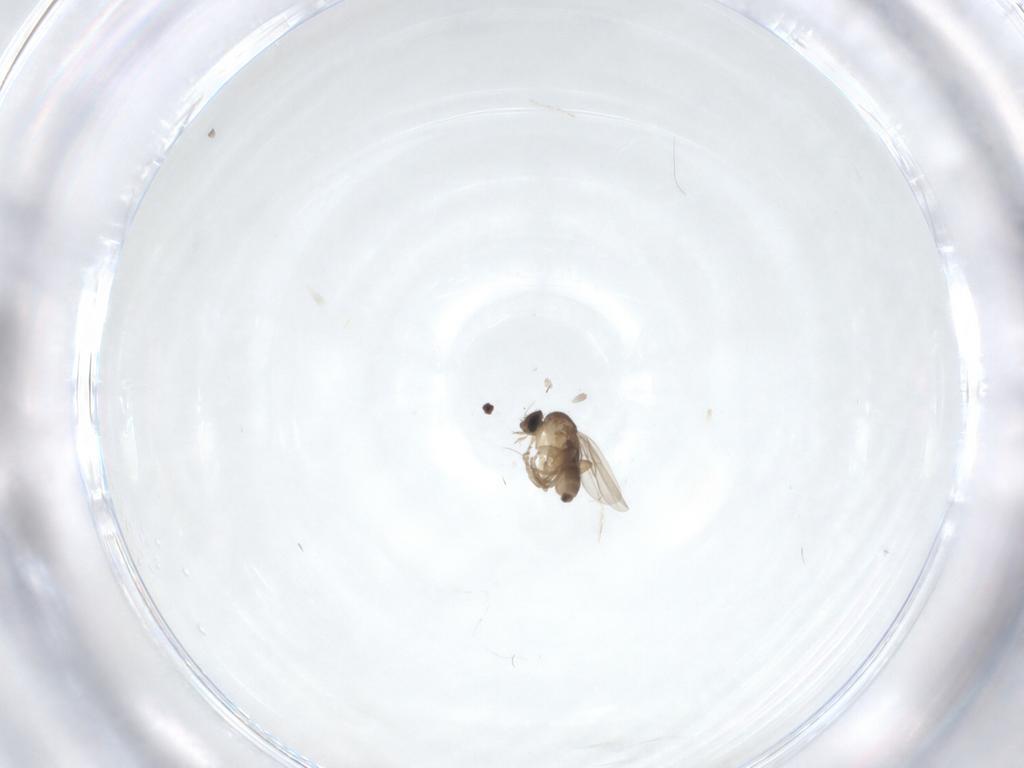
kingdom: Animalia
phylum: Arthropoda
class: Insecta
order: Diptera
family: Phoridae
